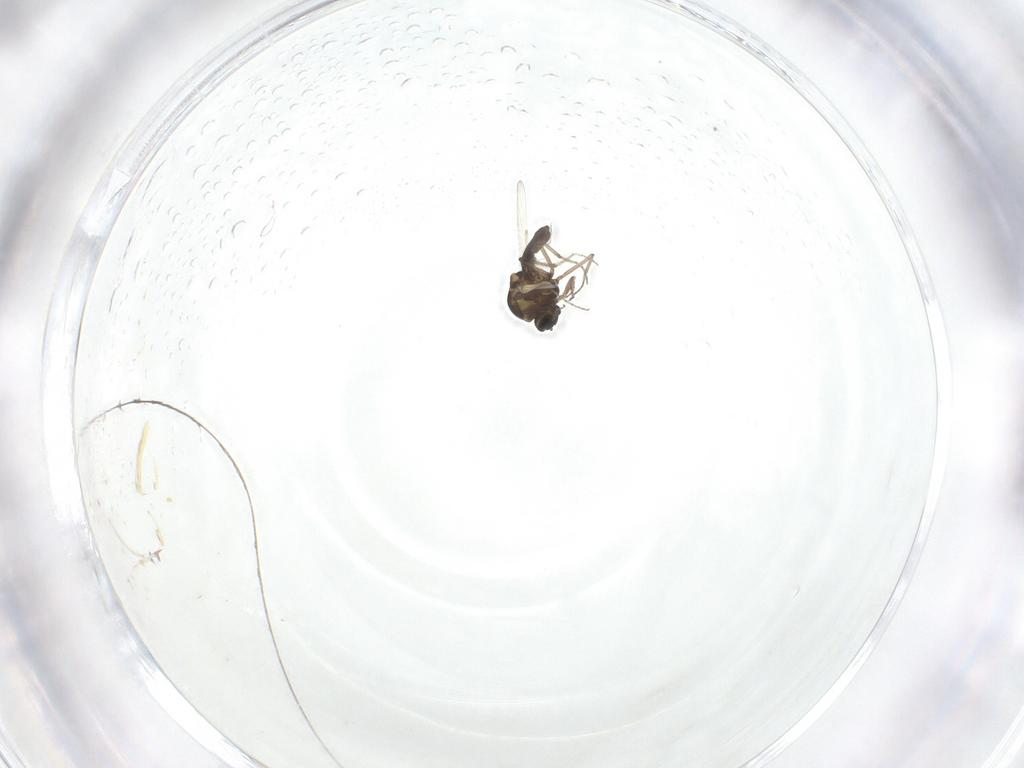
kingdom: Animalia
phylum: Arthropoda
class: Insecta
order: Diptera
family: Ceratopogonidae
